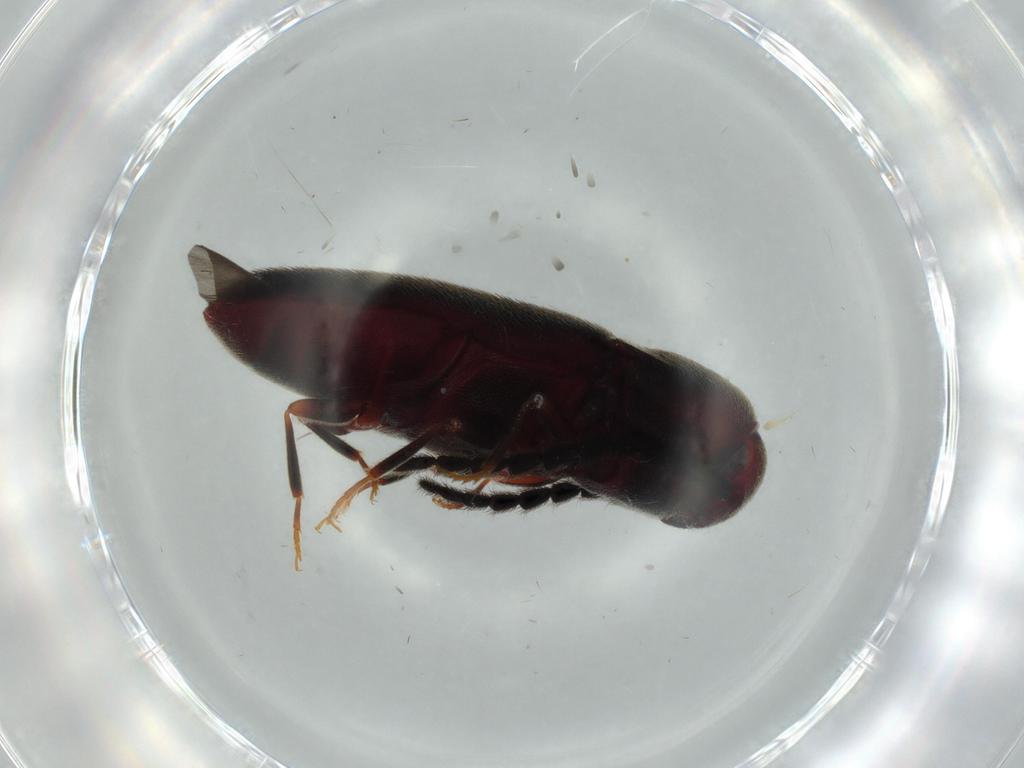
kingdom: Animalia
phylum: Arthropoda
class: Insecta
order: Coleoptera
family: Eucnemidae
